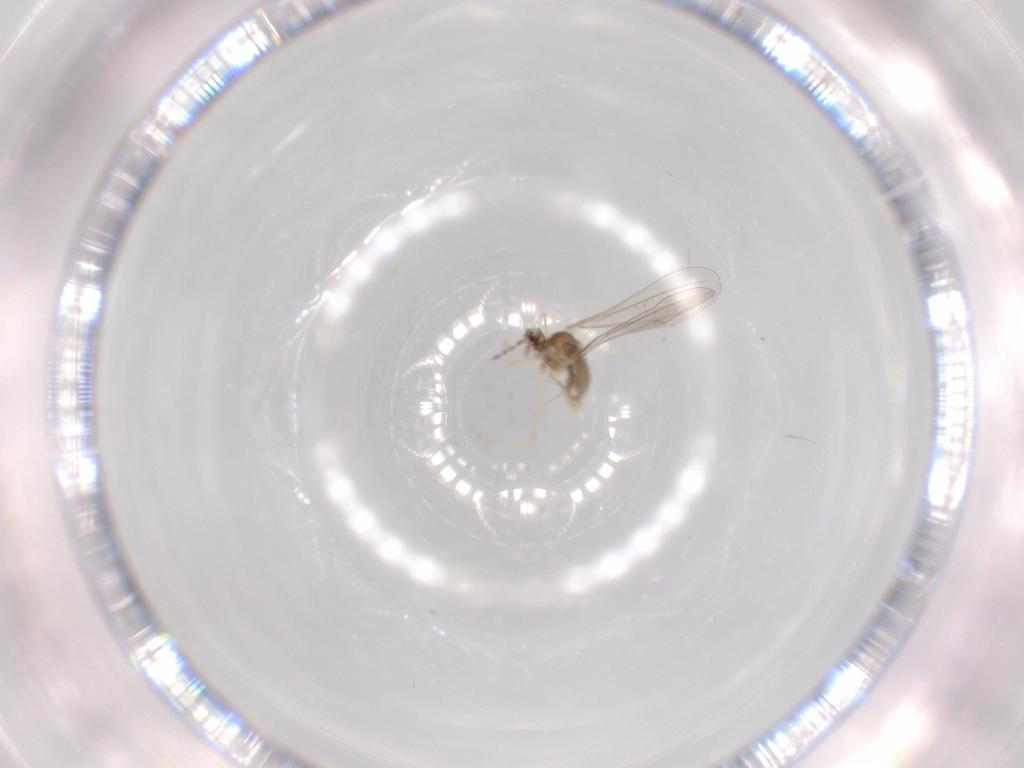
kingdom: Animalia
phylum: Arthropoda
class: Insecta
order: Diptera
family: Cecidomyiidae
